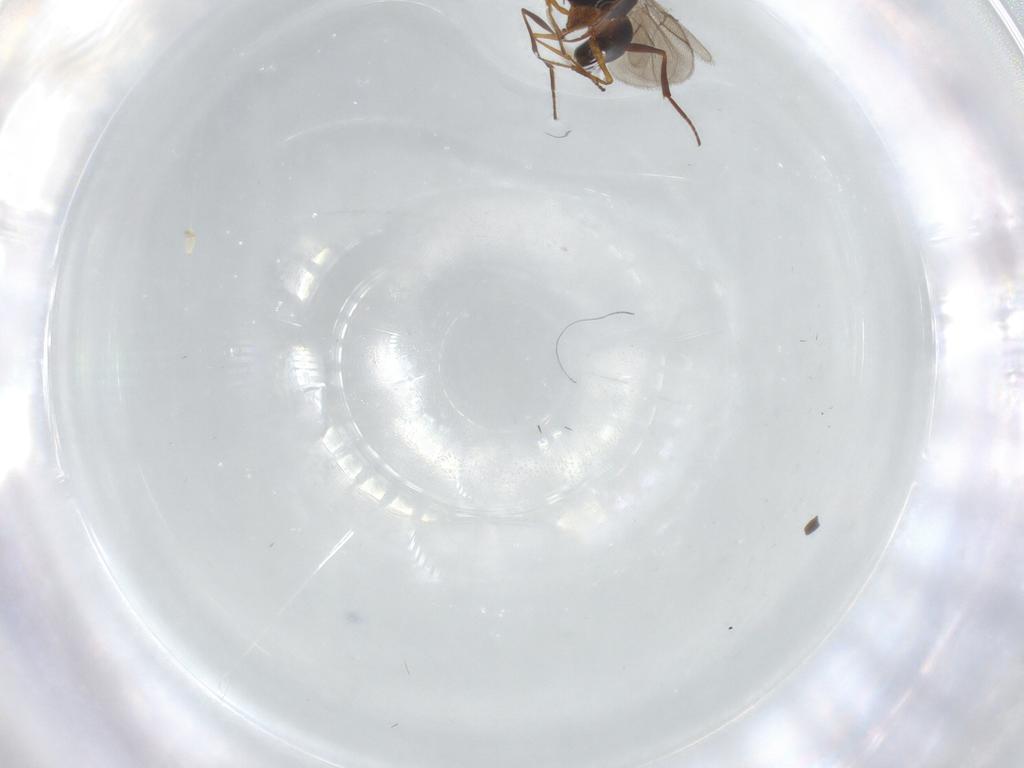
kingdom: Animalia
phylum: Arthropoda
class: Insecta
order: Hymenoptera
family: Figitidae
